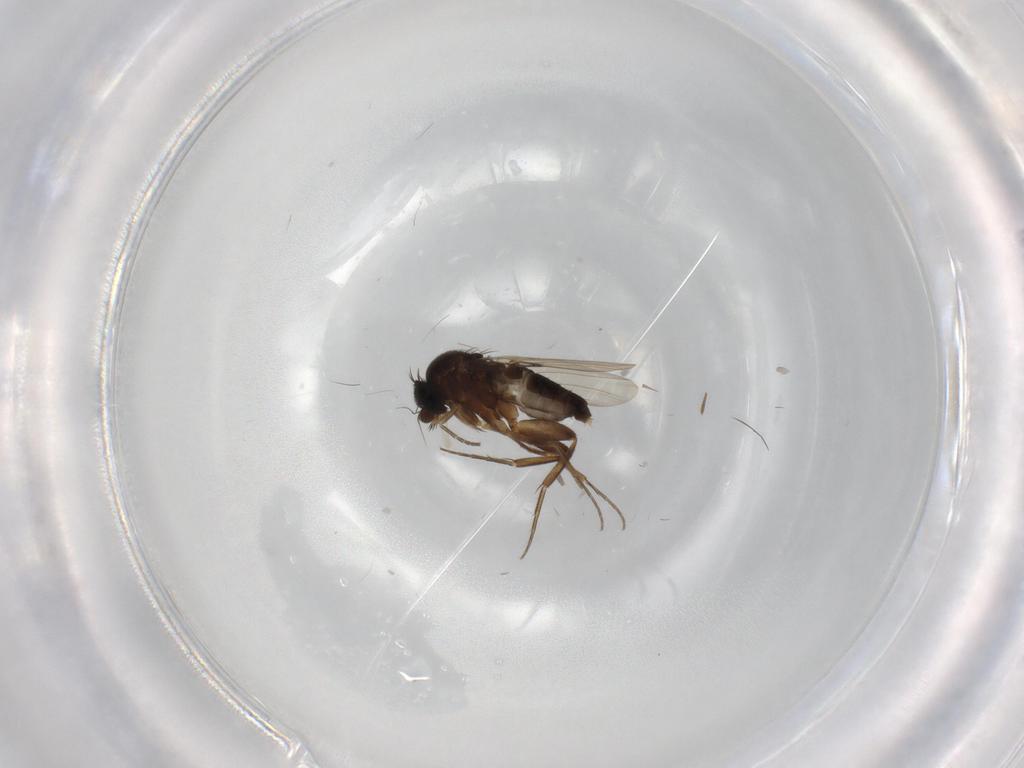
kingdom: Animalia
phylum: Arthropoda
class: Insecta
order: Diptera
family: Phoridae
